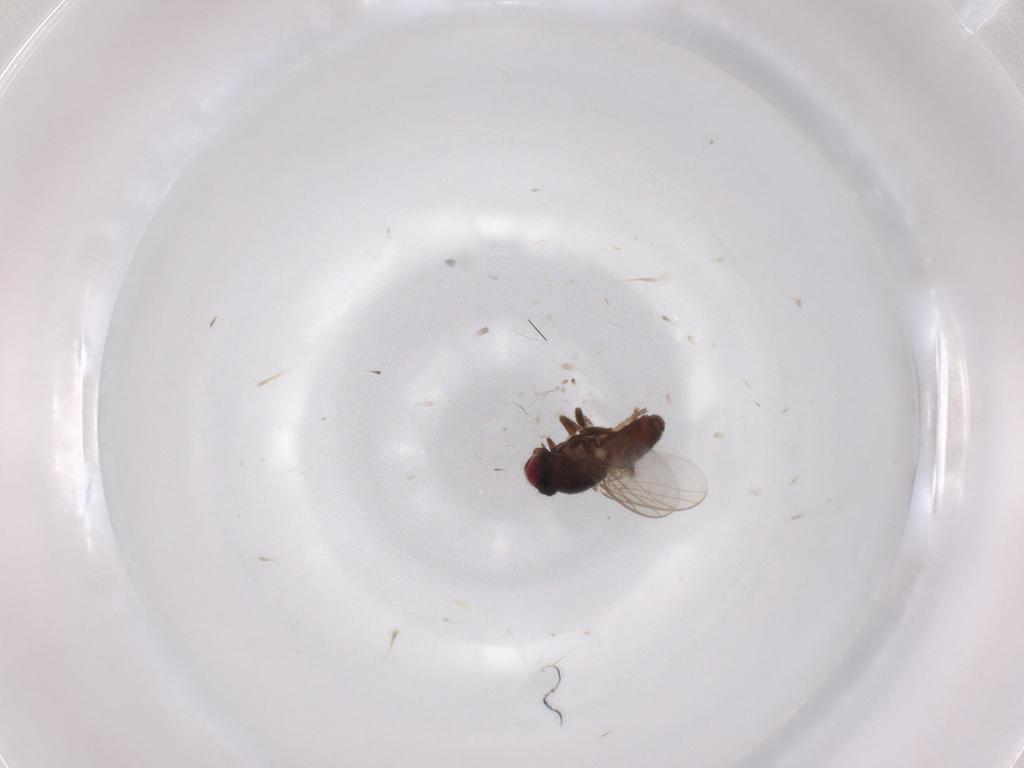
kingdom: Animalia
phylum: Arthropoda
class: Insecta
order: Diptera
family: Chloropidae
